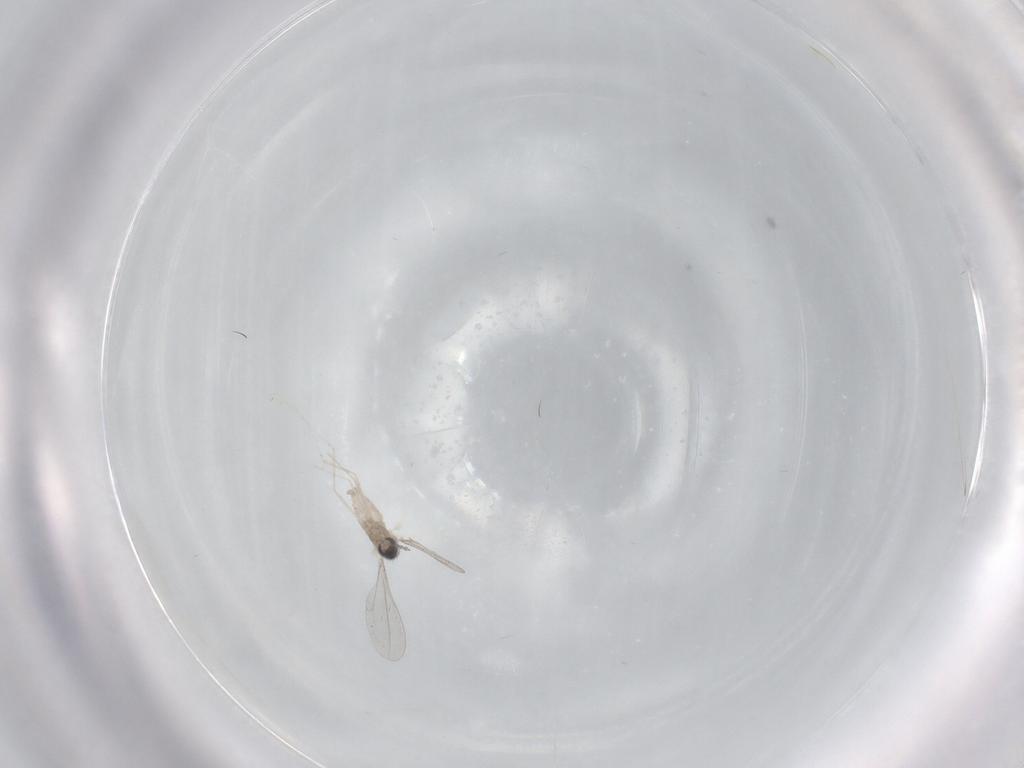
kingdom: Animalia
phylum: Arthropoda
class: Insecta
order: Diptera
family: Cecidomyiidae
